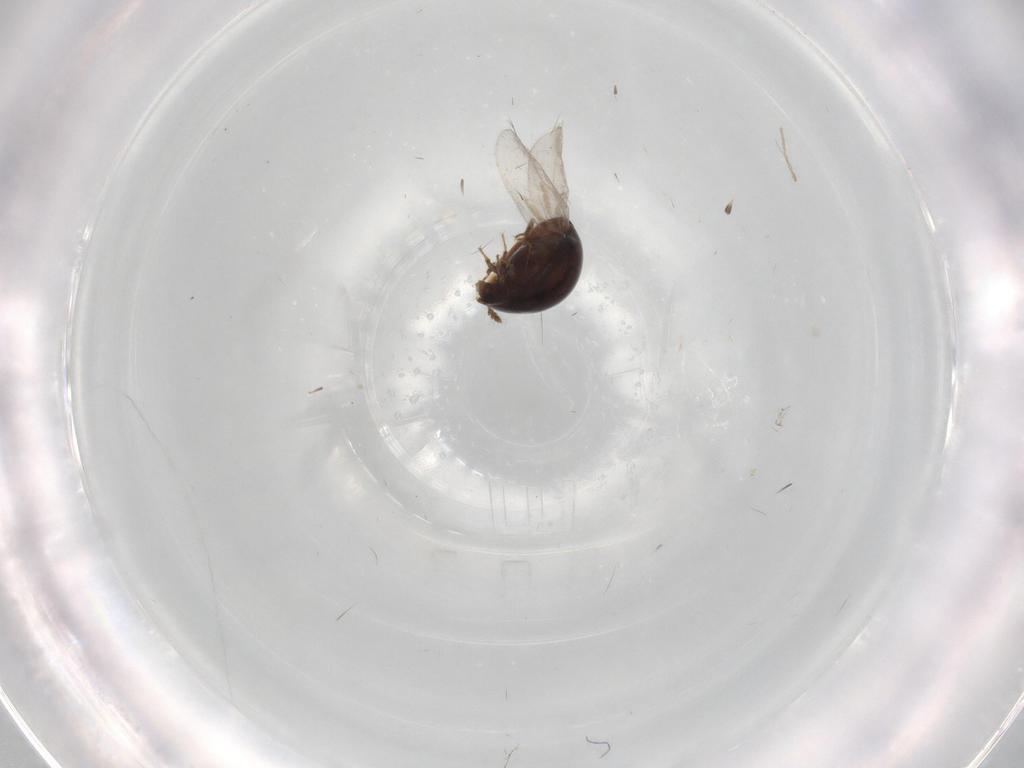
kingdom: Animalia
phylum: Arthropoda
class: Insecta
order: Coleoptera
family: Corylophidae
